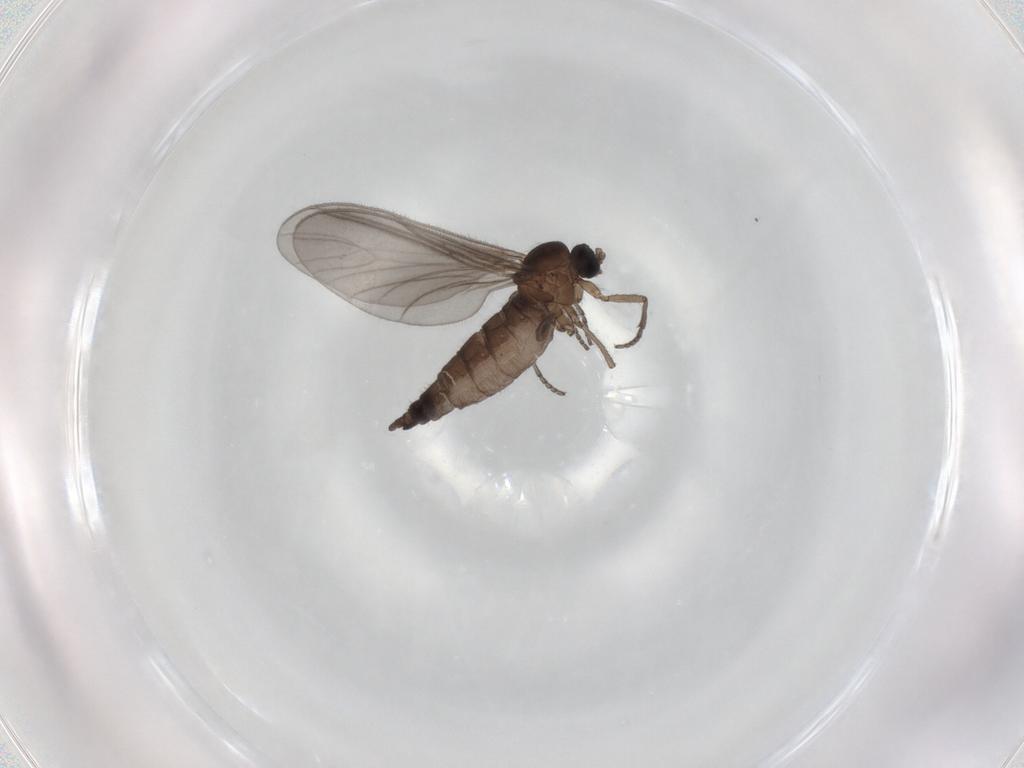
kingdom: Animalia
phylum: Arthropoda
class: Insecta
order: Diptera
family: Sciaridae
